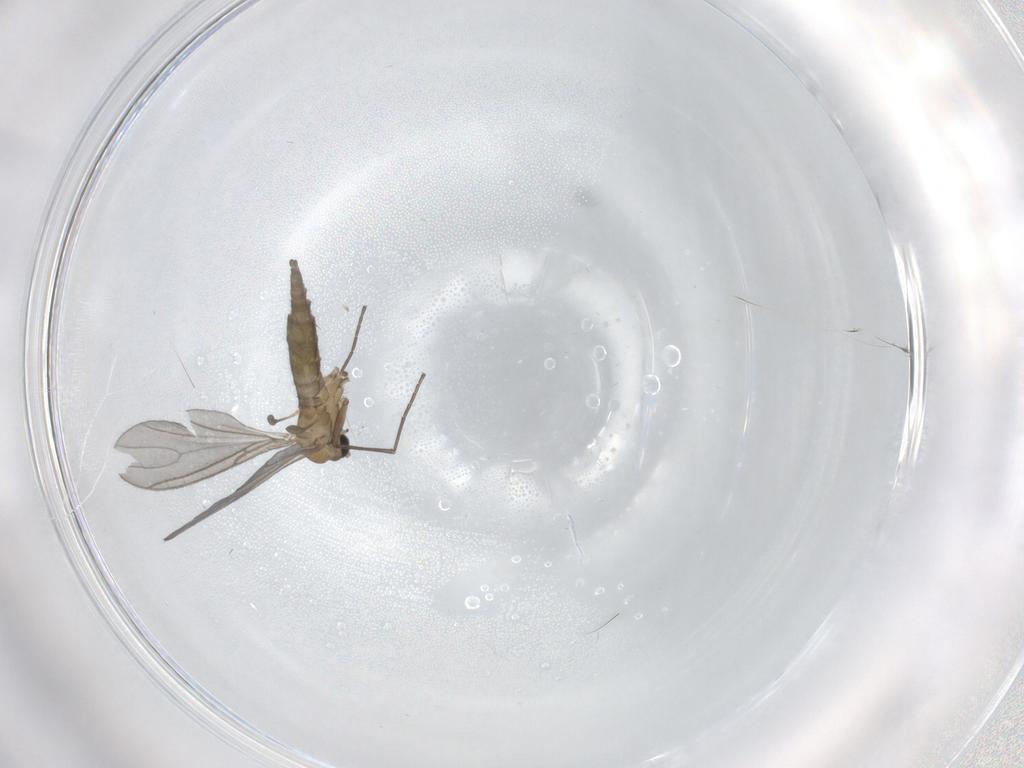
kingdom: Animalia
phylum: Arthropoda
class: Insecta
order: Diptera
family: Sciaridae
